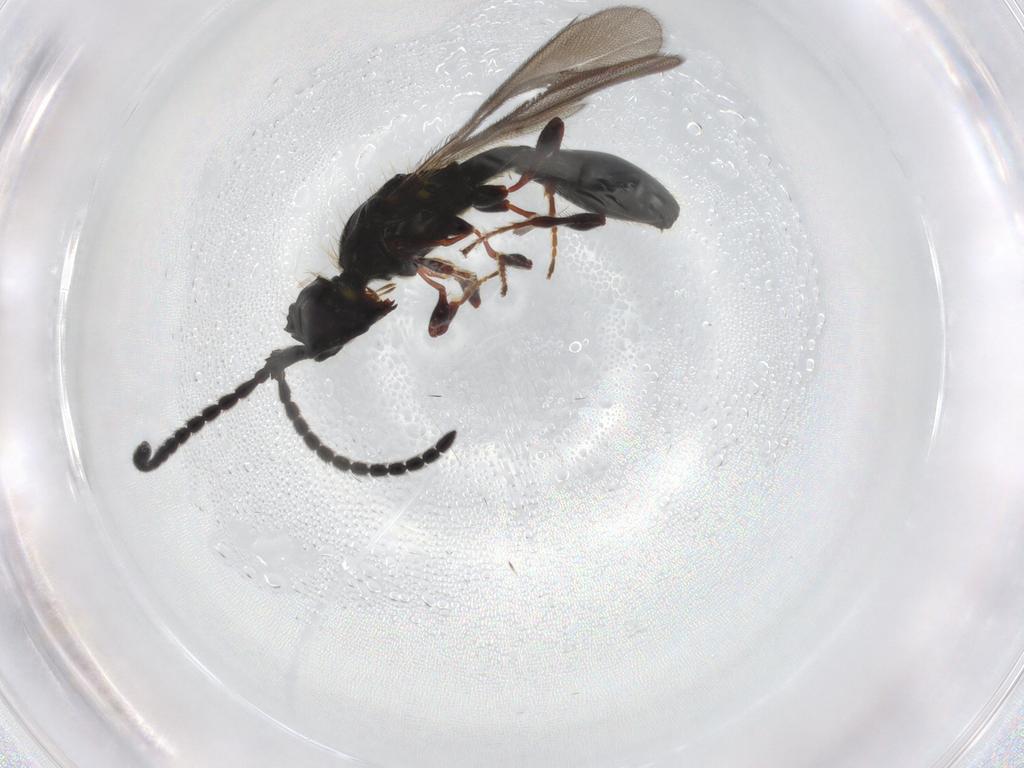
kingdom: Animalia
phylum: Arthropoda
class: Insecta
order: Hymenoptera
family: Diapriidae
